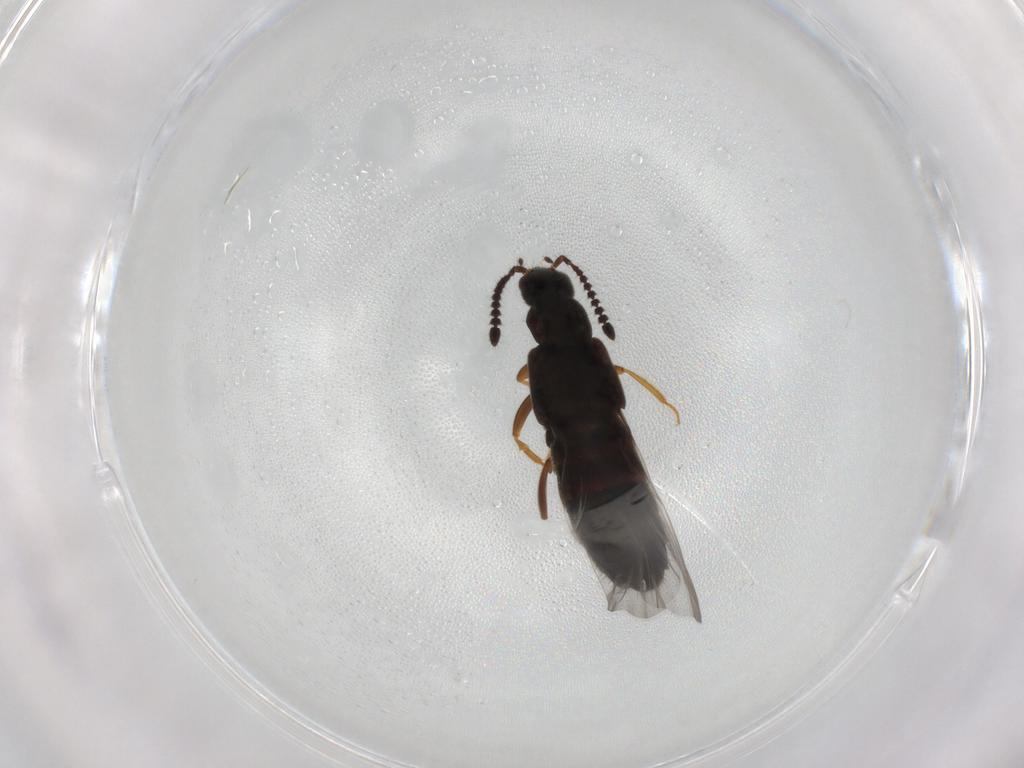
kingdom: Animalia
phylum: Arthropoda
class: Insecta
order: Coleoptera
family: Staphylinidae
